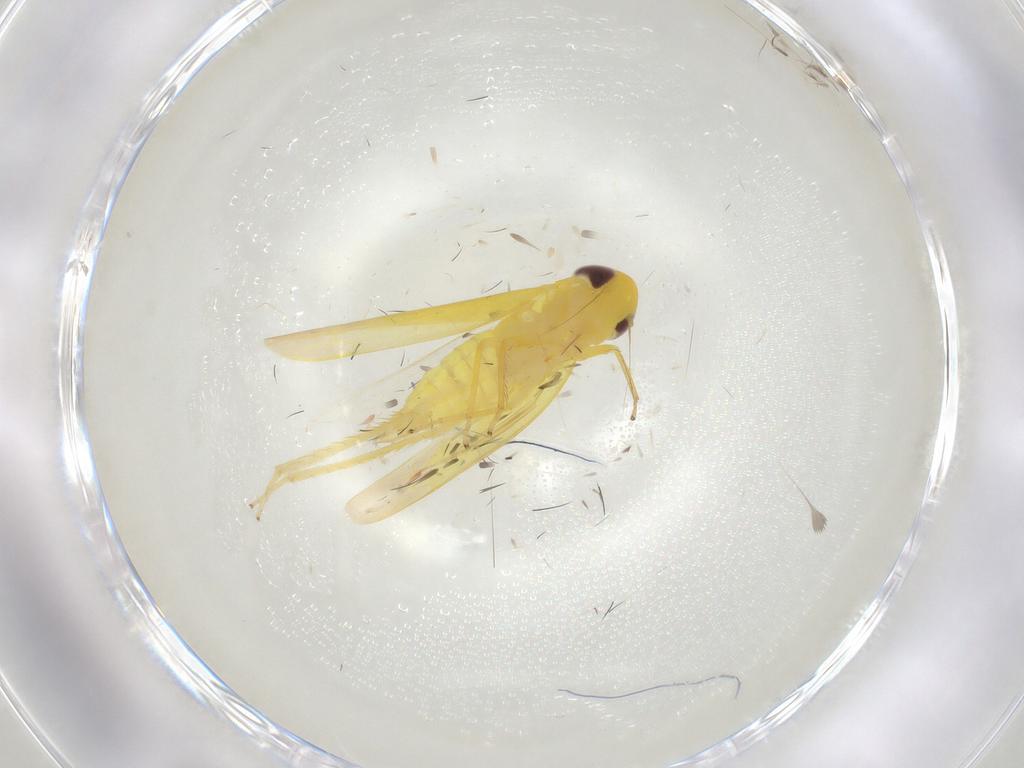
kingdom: Animalia
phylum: Arthropoda
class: Insecta
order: Hemiptera
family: Cicadellidae
